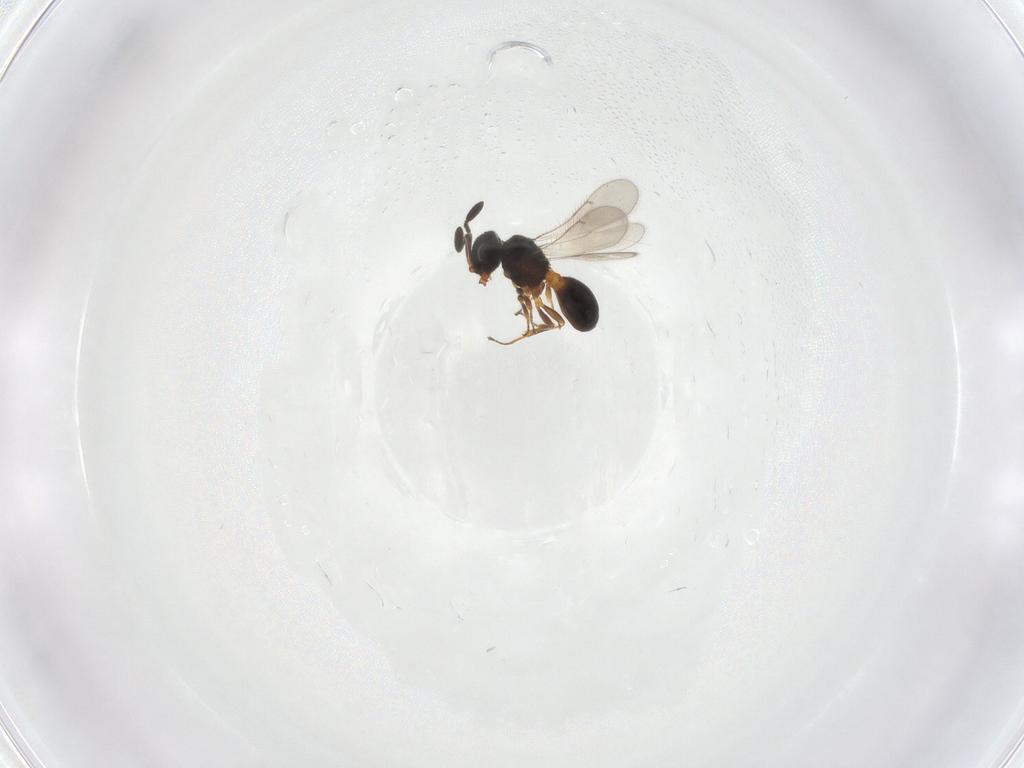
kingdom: Animalia
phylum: Arthropoda
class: Insecta
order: Hymenoptera
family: Scelionidae
